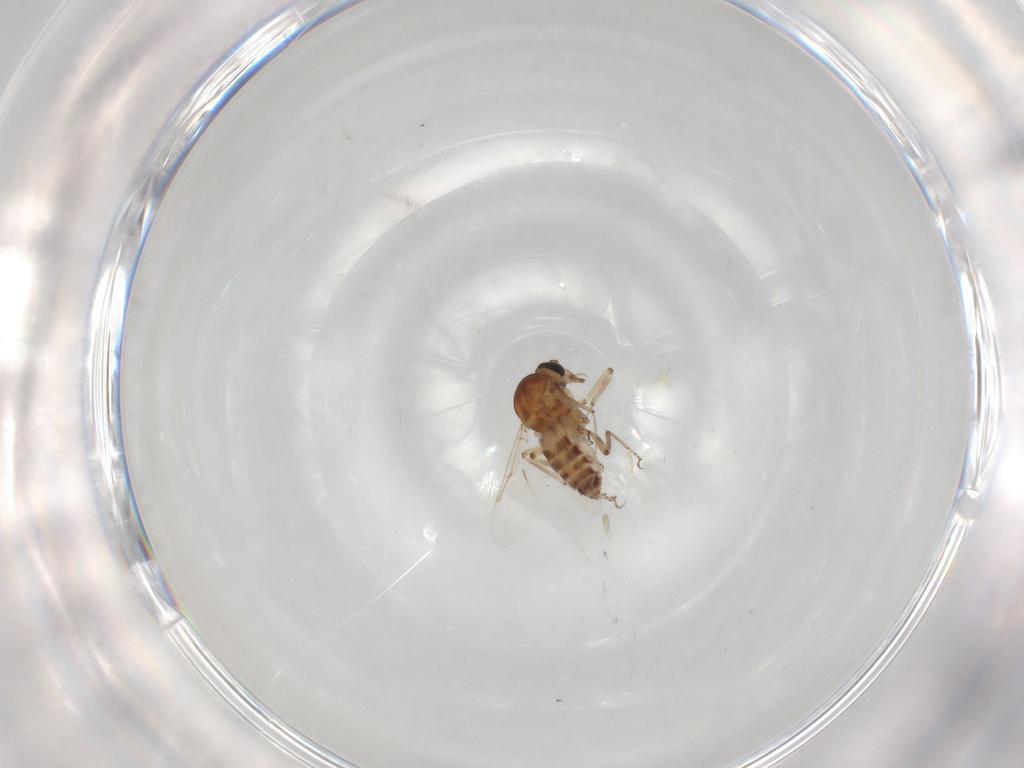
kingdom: Animalia
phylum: Arthropoda
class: Insecta
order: Diptera
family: Ceratopogonidae
